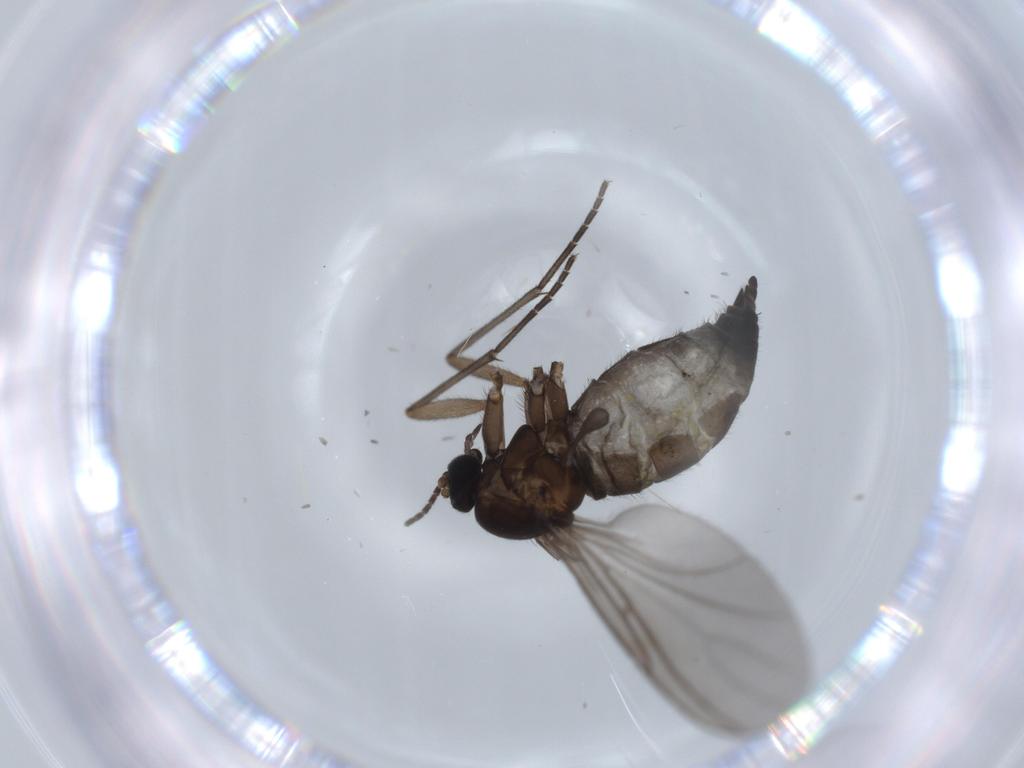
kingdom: Animalia
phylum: Arthropoda
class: Insecta
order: Diptera
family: Sciaridae
